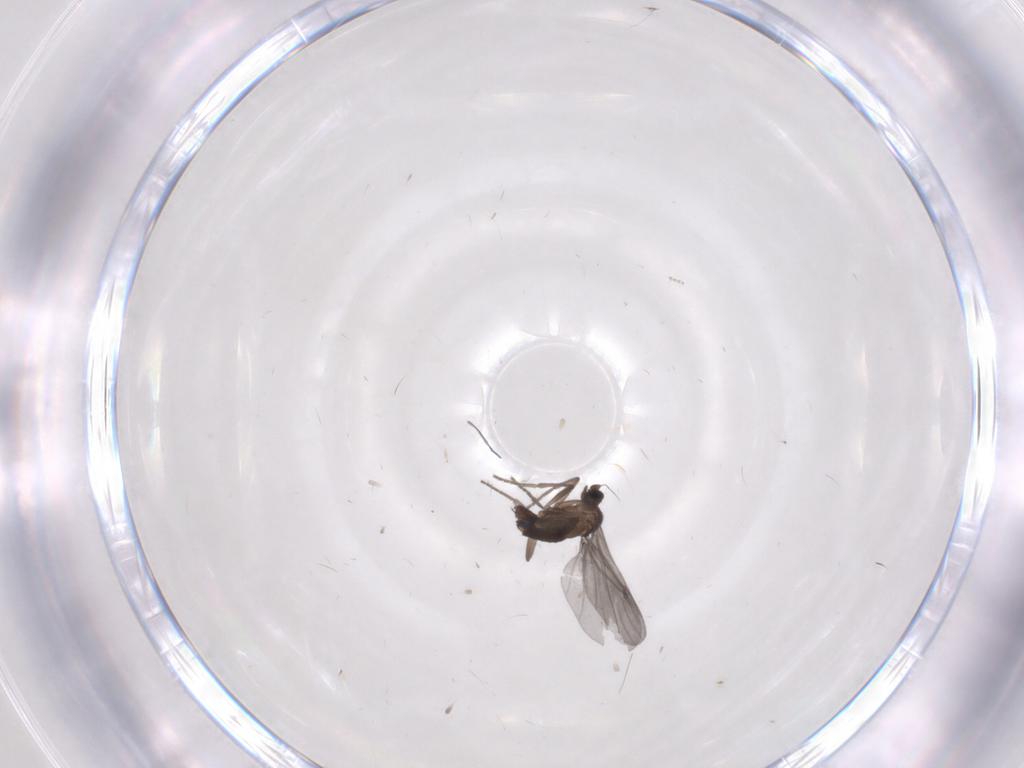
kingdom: Animalia
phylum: Arthropoda
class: Insecta
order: Diptera
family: Phoridae
